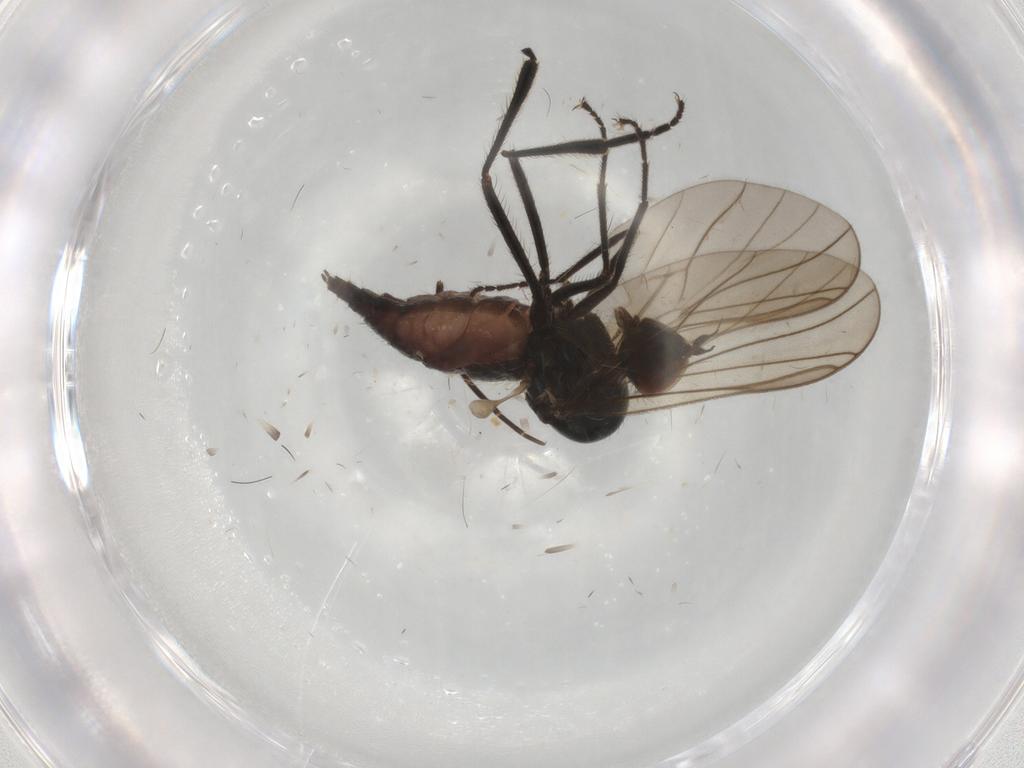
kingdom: Animalia
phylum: Arthropoda
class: Insecta
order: Diptera
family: Hybotidae
